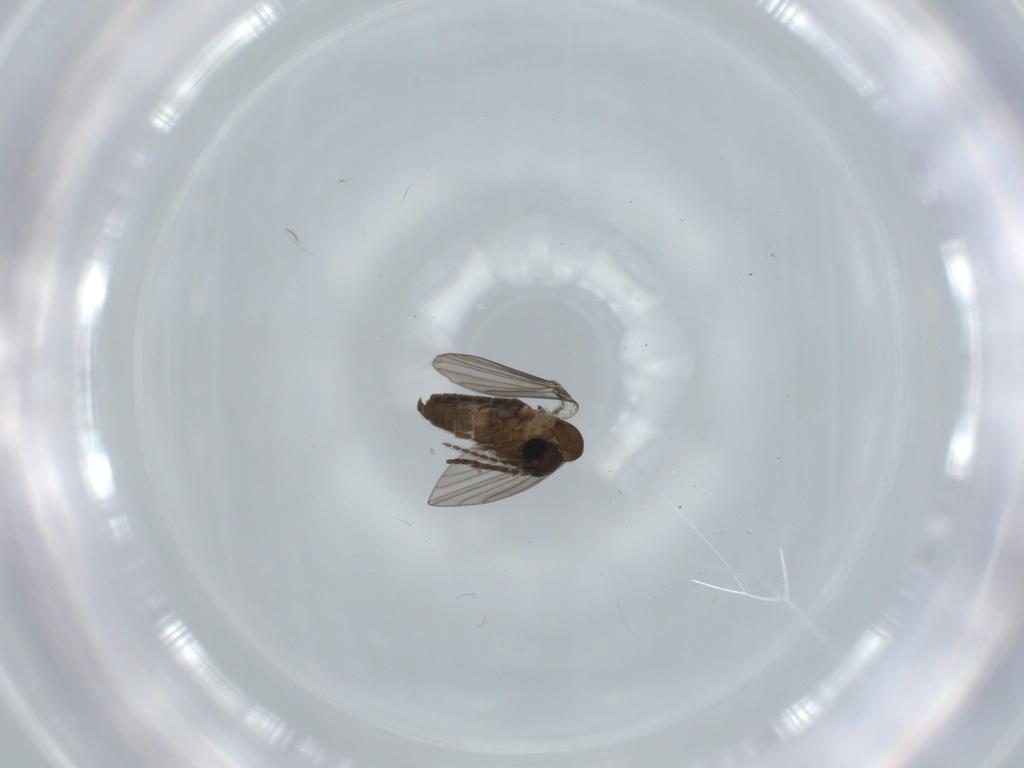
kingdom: Animalia
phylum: Arthropoda
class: Insecta
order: Diptera
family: Psychodidae
